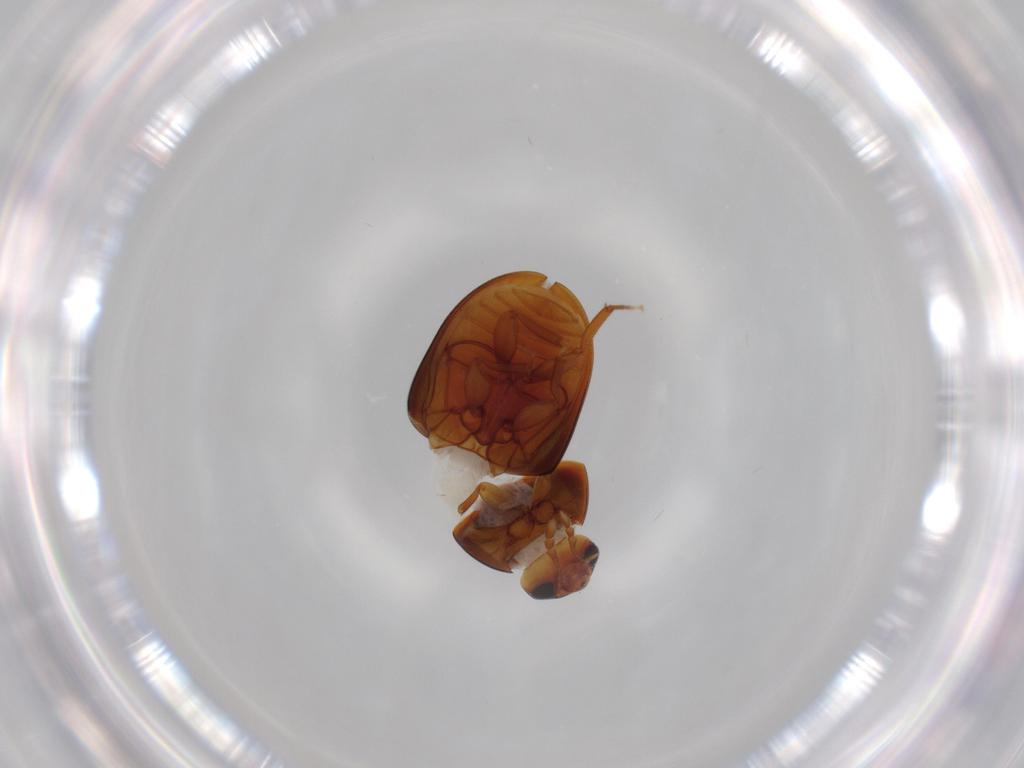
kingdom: Animalia
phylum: Arthropoda
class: Insecta
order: Coleoptera
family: Phalacridae
